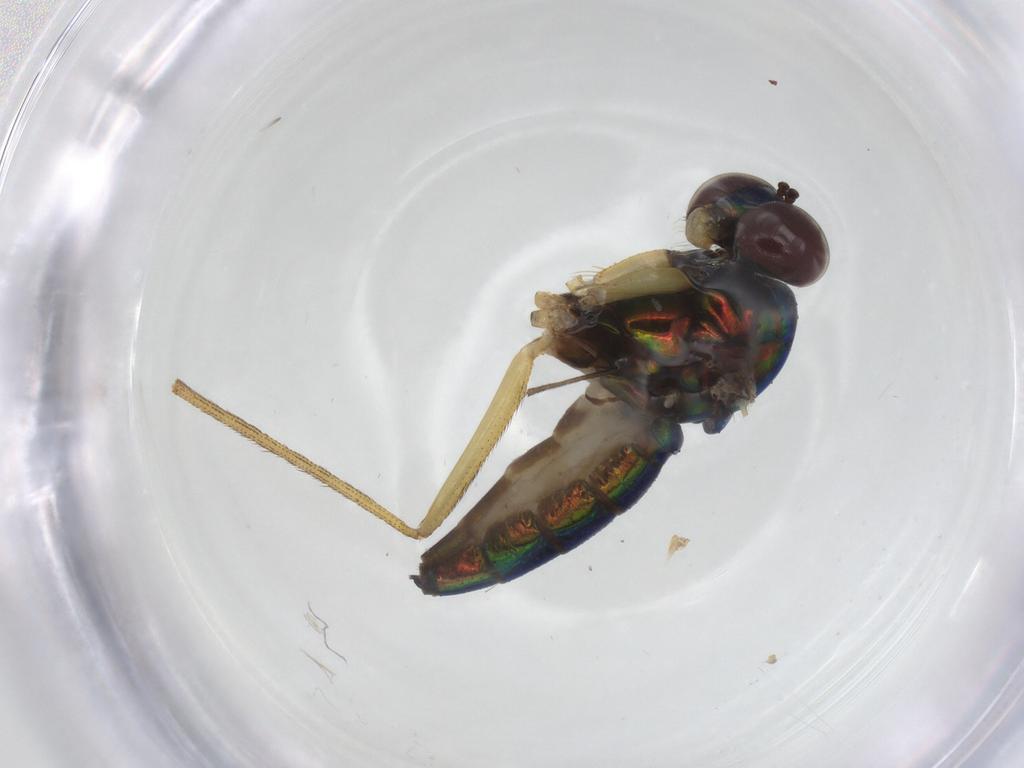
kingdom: Animalia
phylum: Arthropoda
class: Insecta
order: Diptera
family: Dolichopodidae
